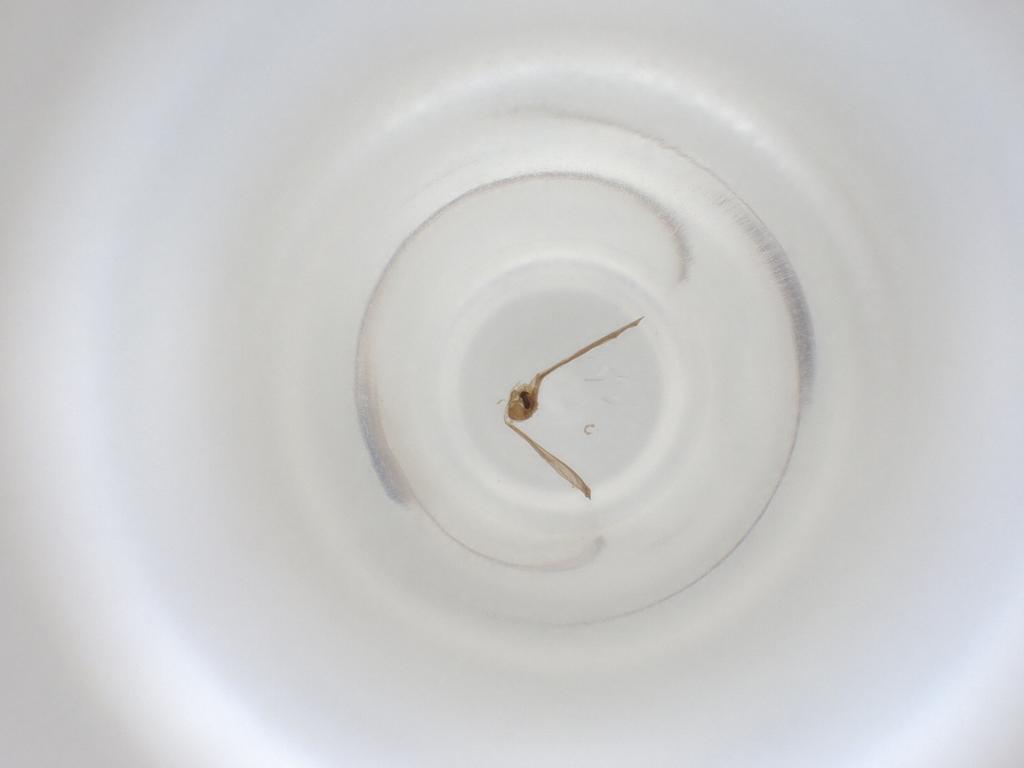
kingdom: Animalia
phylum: Arthropoda
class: Insecta
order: Diptera
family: Cecidomyiidae
